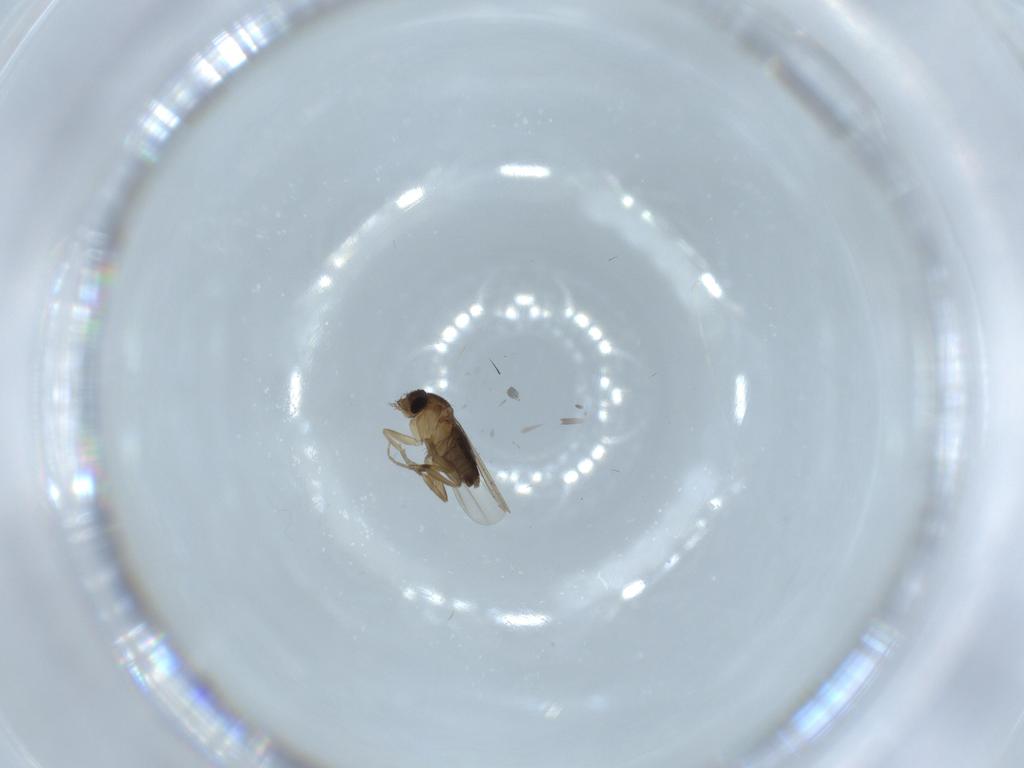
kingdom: Animalia
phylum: Arthropoda
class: Insecta
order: Diptera
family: Phoridae
